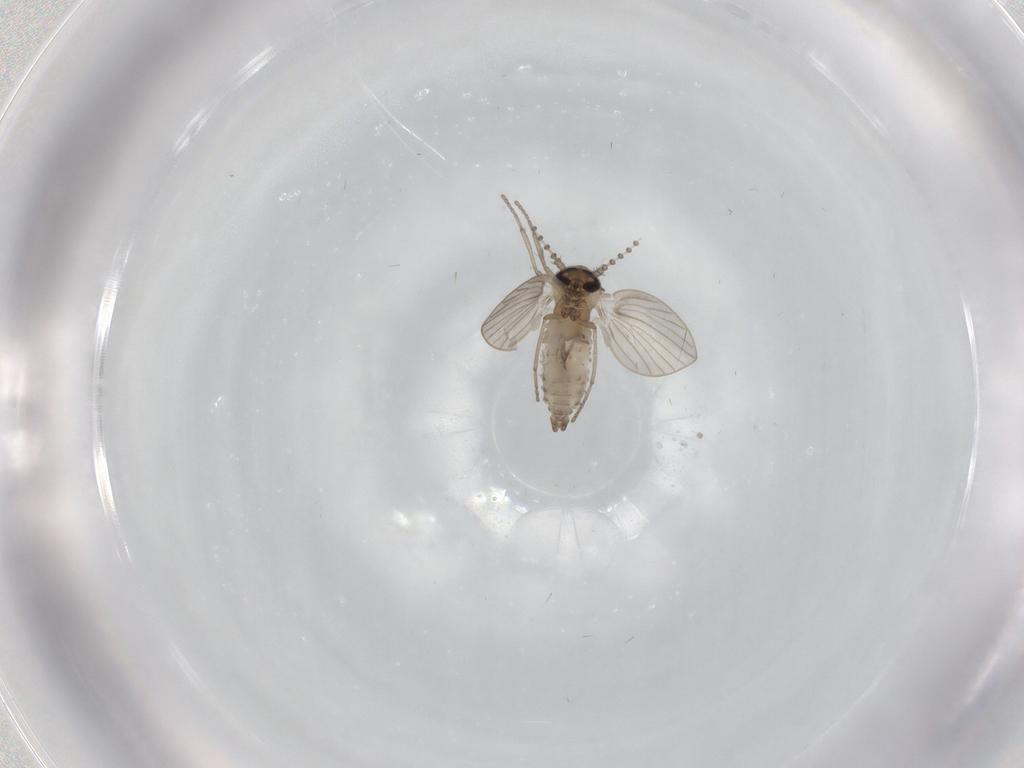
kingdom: Animalia
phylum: Arthropoda
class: Insecta
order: Diptera
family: Psychodidae
